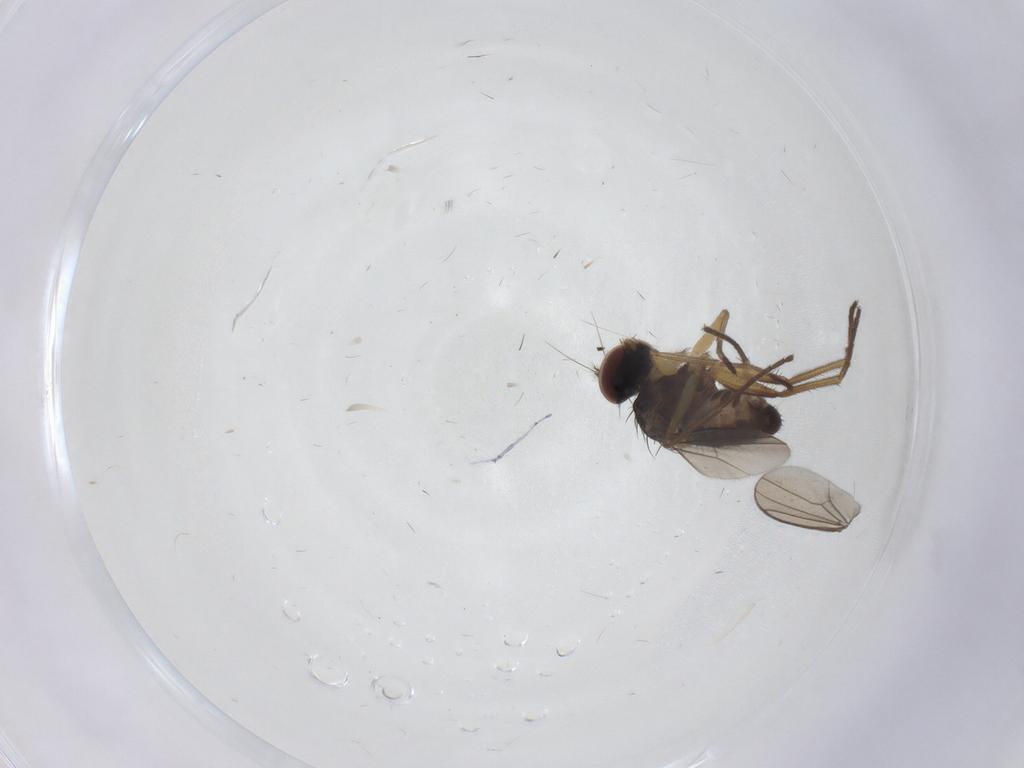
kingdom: Animalia
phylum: Arthropoda
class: Insecta
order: Diptera
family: Dolichopodidae
